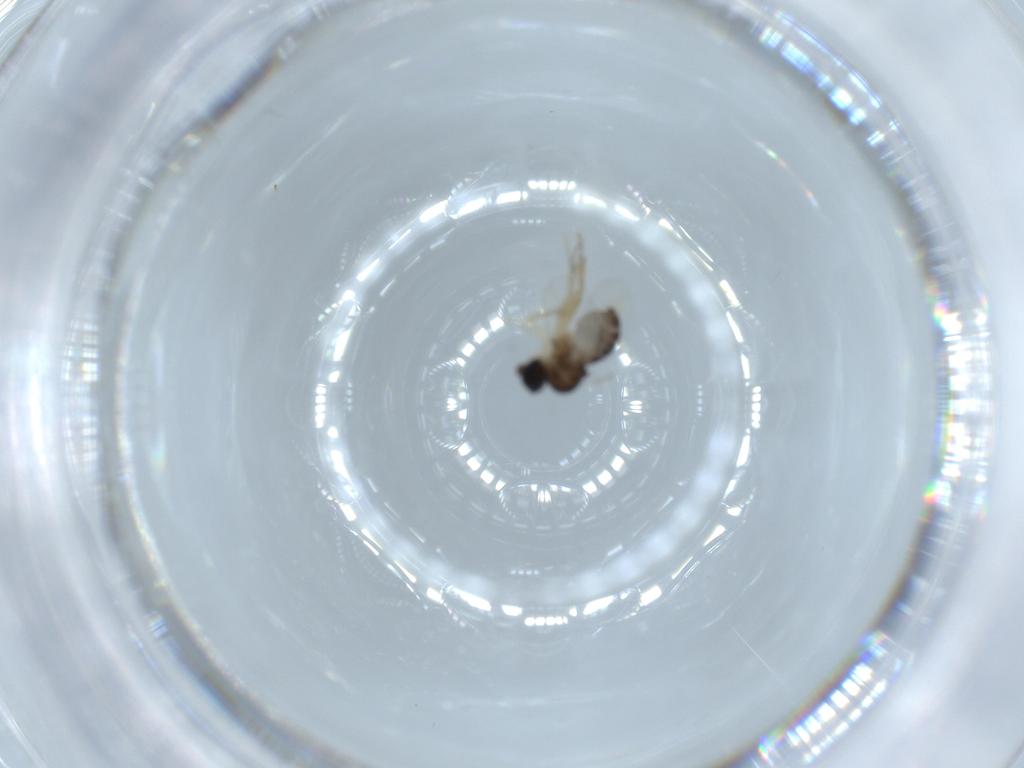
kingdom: Animalia
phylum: Arthropoda
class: Insecta
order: Diptera
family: Phoridae
